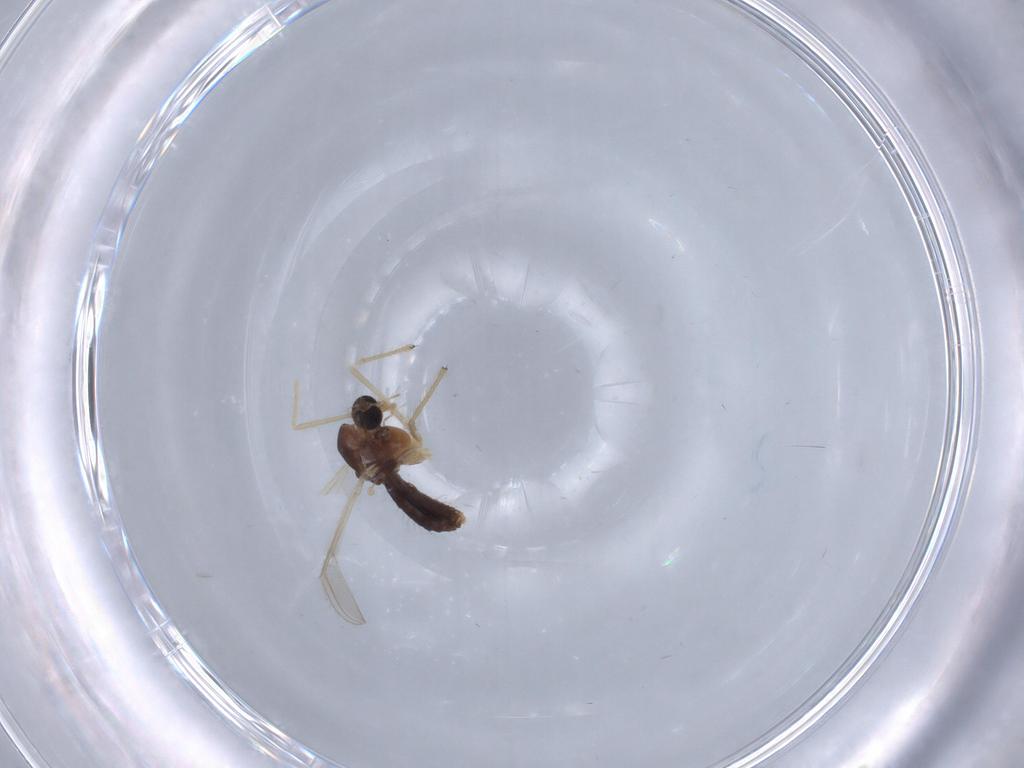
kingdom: Animalia
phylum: Arthropoda
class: Insecta
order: Diptera
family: Chironomidae
